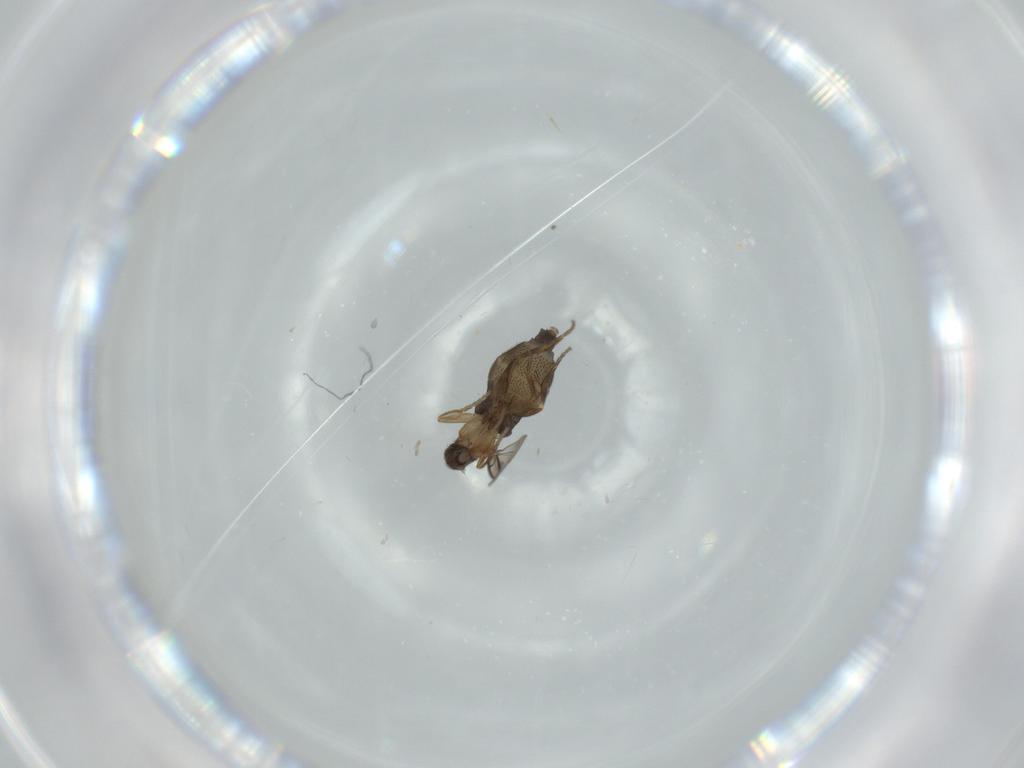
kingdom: Animalia
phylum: Arthropoda
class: Insecta
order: Diptera
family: Phoridae
